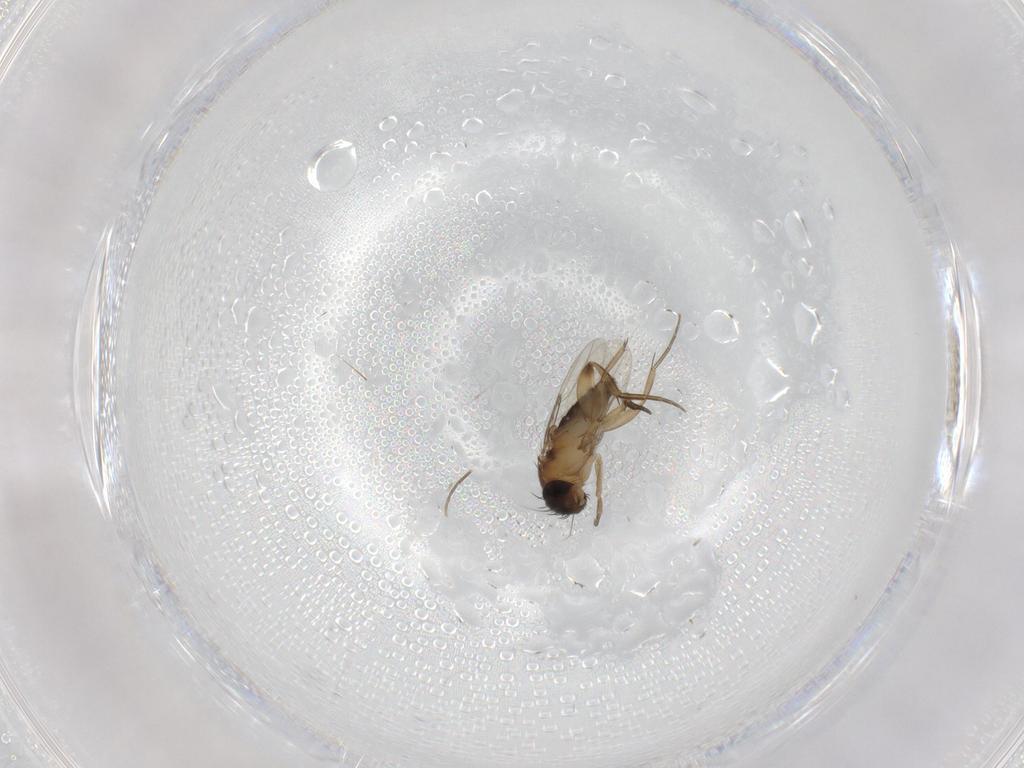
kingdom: Animalia
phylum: Arthropoda
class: Insecta
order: Diptera
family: Phoridae
